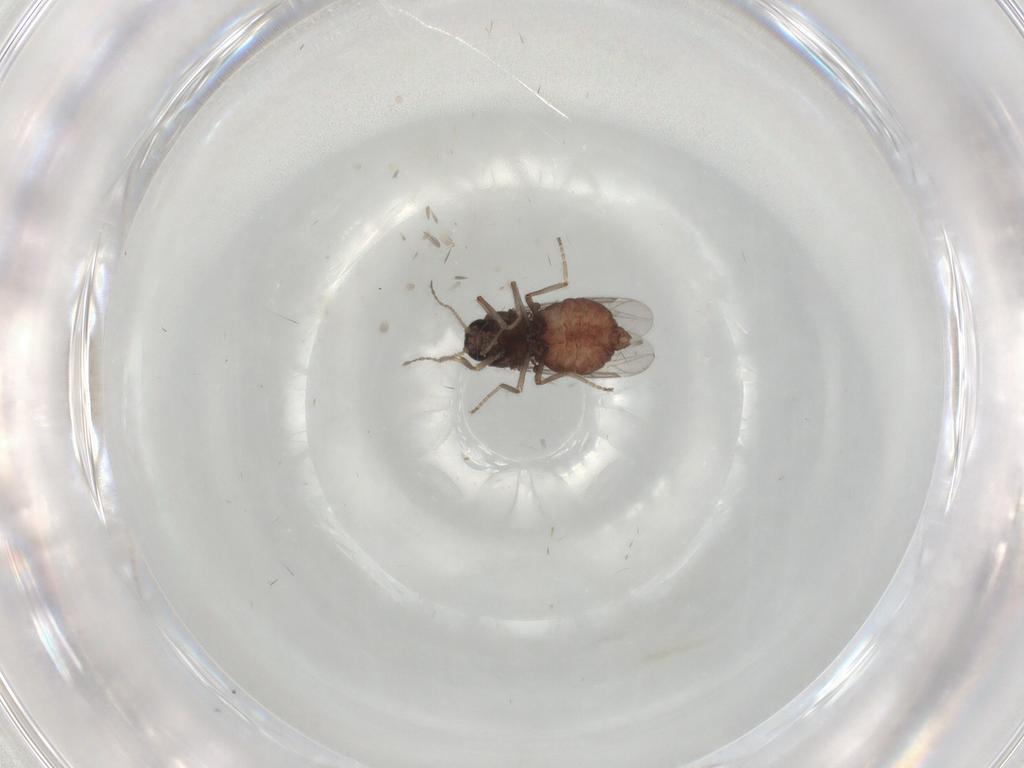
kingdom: Animalia
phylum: Arthropoda
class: Insecta
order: Diptera
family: Ceratopogonidae
